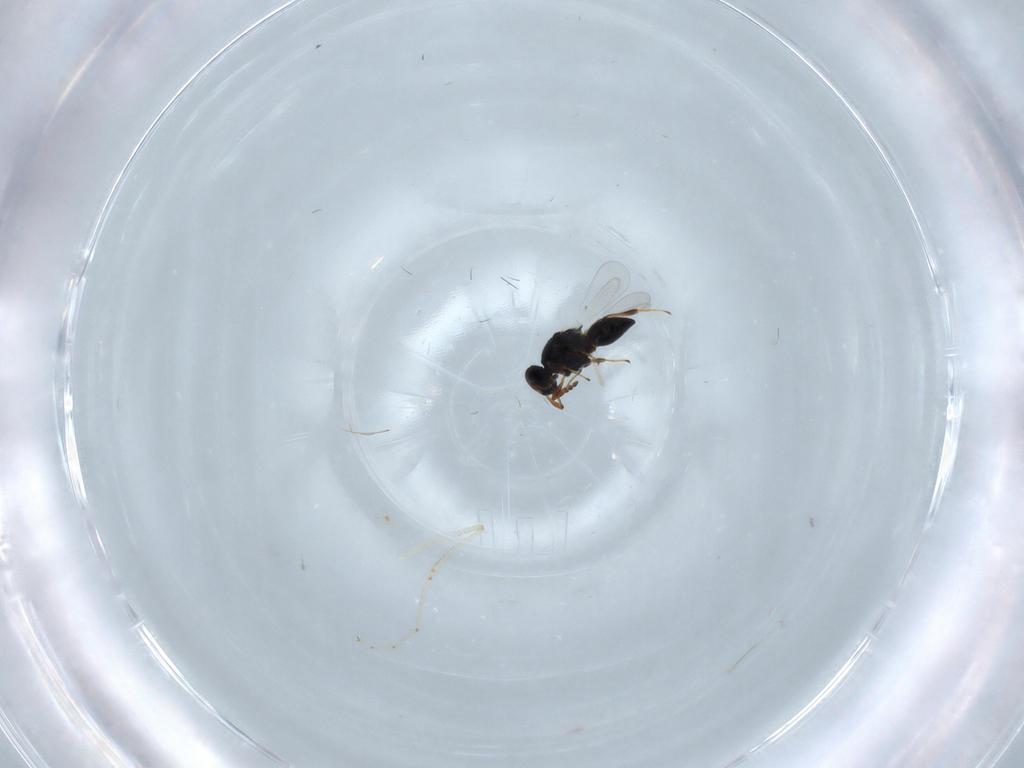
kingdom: Animalia
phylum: Arthropoda
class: Insecta
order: Hymenoptera
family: Platygastridae
